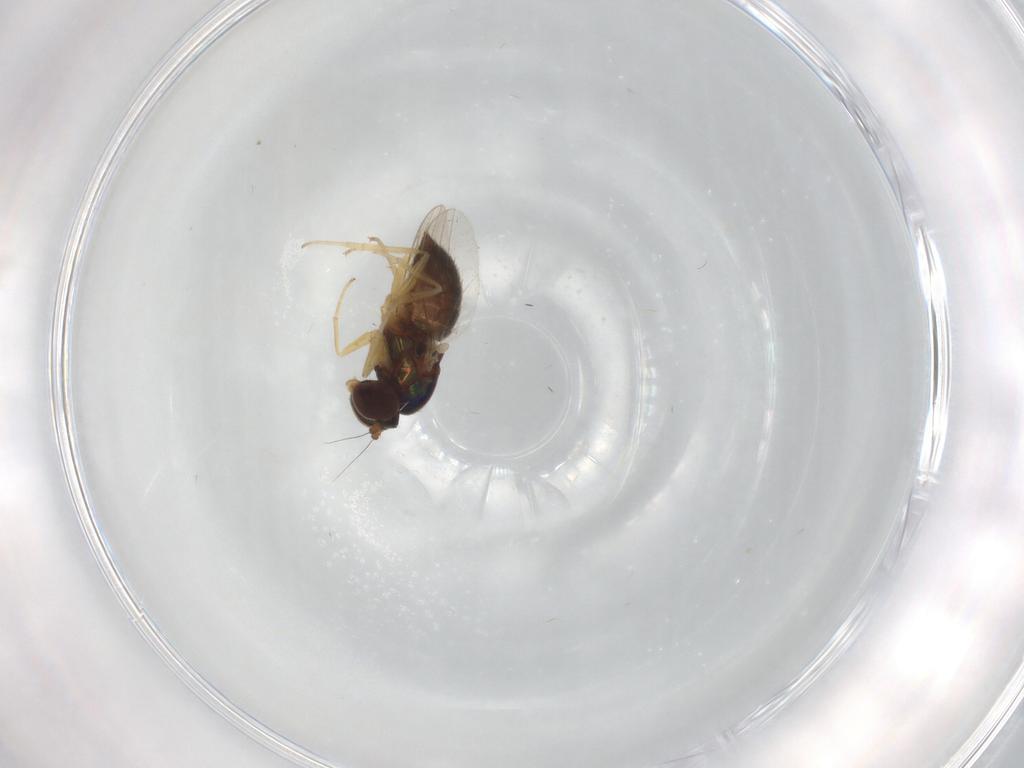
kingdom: Animalia
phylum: Arthropoda
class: Insecta
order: Diptera
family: Dolichopodidae
